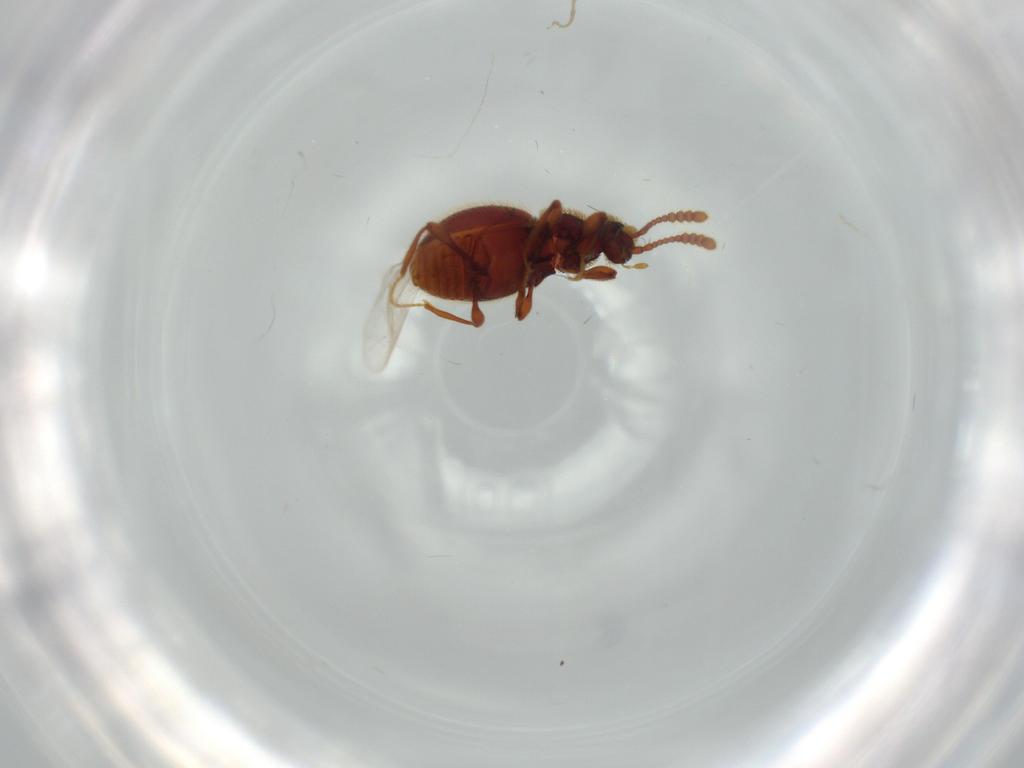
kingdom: Animalia
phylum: Arthropoda
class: Insecta
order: Coleoptera
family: Staphylinidae
